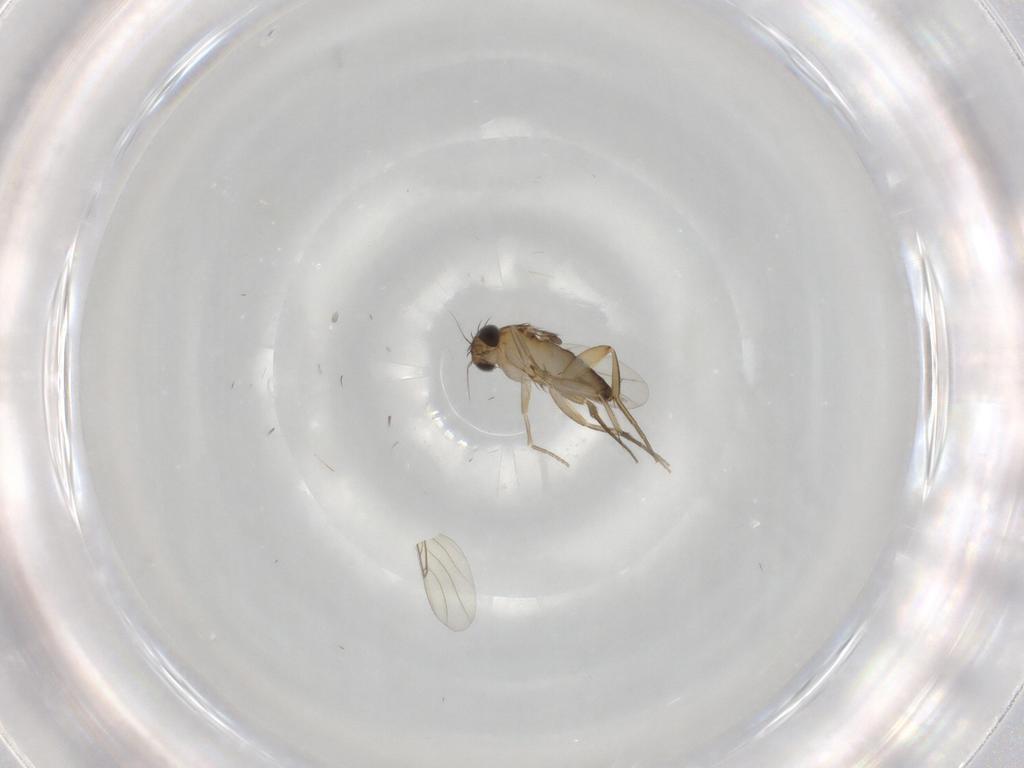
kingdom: Animalia
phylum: Arthropoda
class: Insecta
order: Diptera
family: Phoridae
